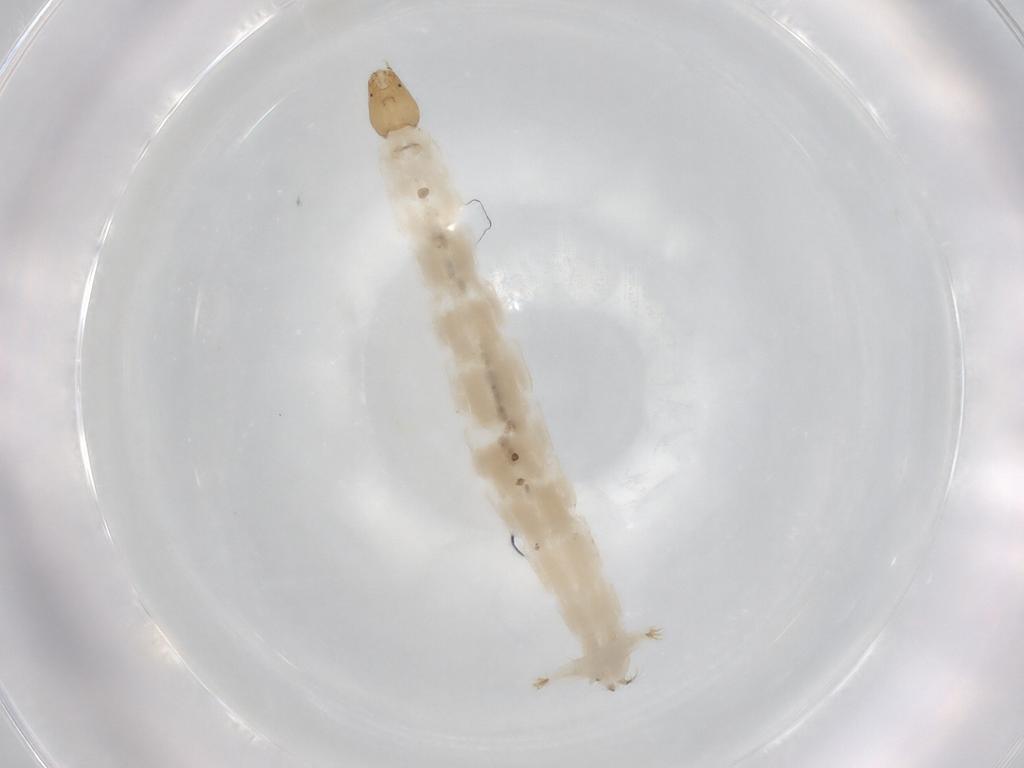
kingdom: Animalia
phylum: Arthropoda
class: Insecta
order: Diptera
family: Chironomidae
